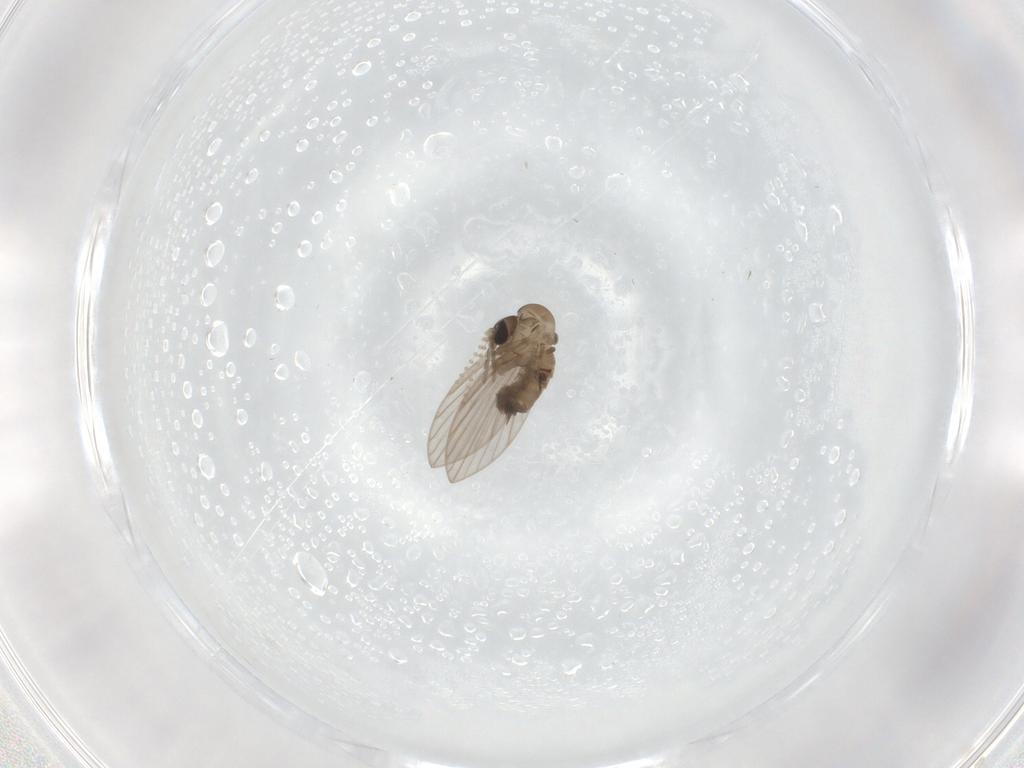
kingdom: Animalia
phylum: Arthropoda
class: Insecta
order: Diptera
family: Psychodidae
